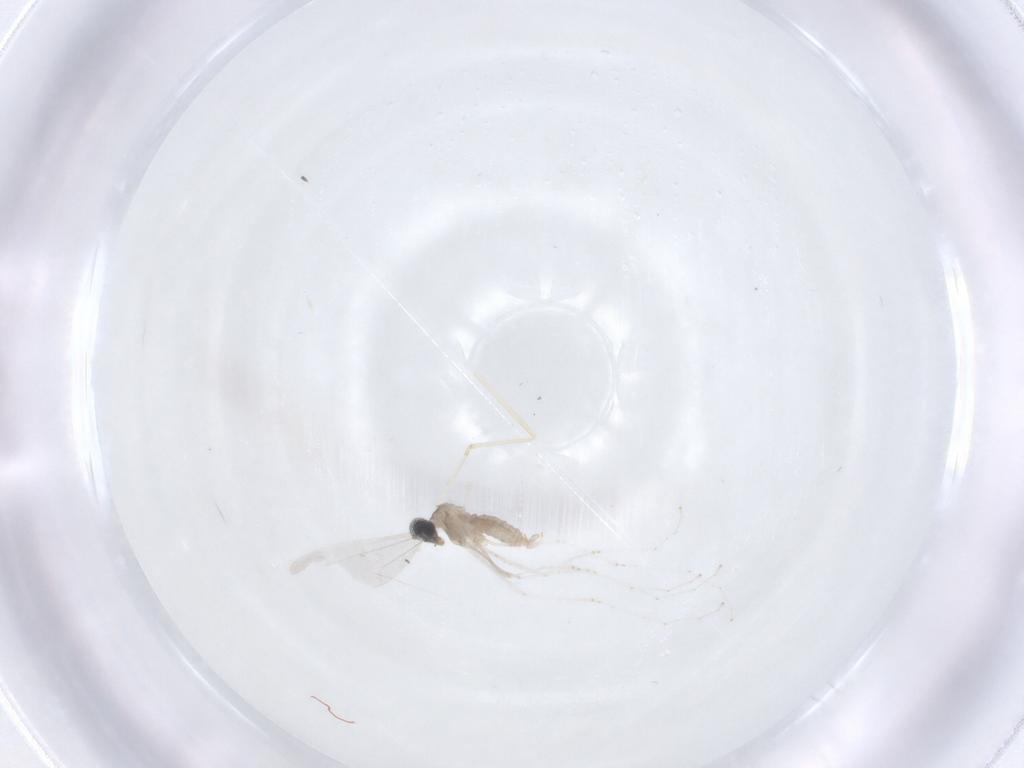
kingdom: Animalia
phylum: Arthropoda
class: Insecta
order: Diptera
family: Cecidomyiidae
